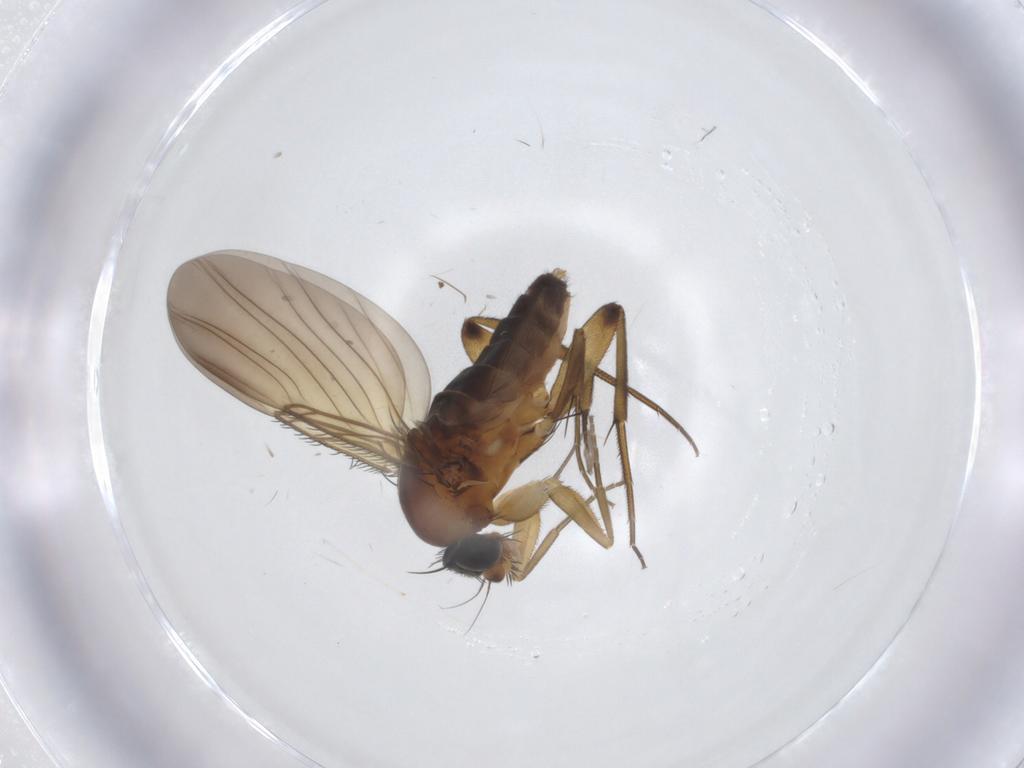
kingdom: Animalia
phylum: Arthropoda
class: Insecta
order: Diptera
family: Phoridae
